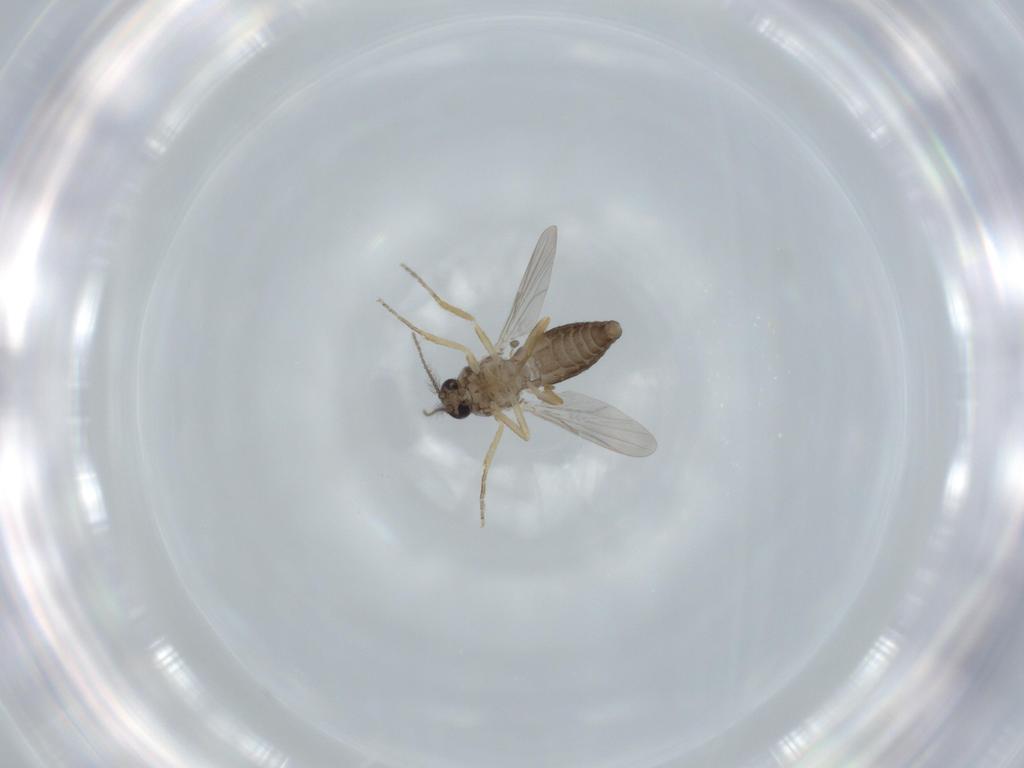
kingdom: Animalia
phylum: Arthropoda
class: Insecta
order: Diptera
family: Ceratopogonidae
